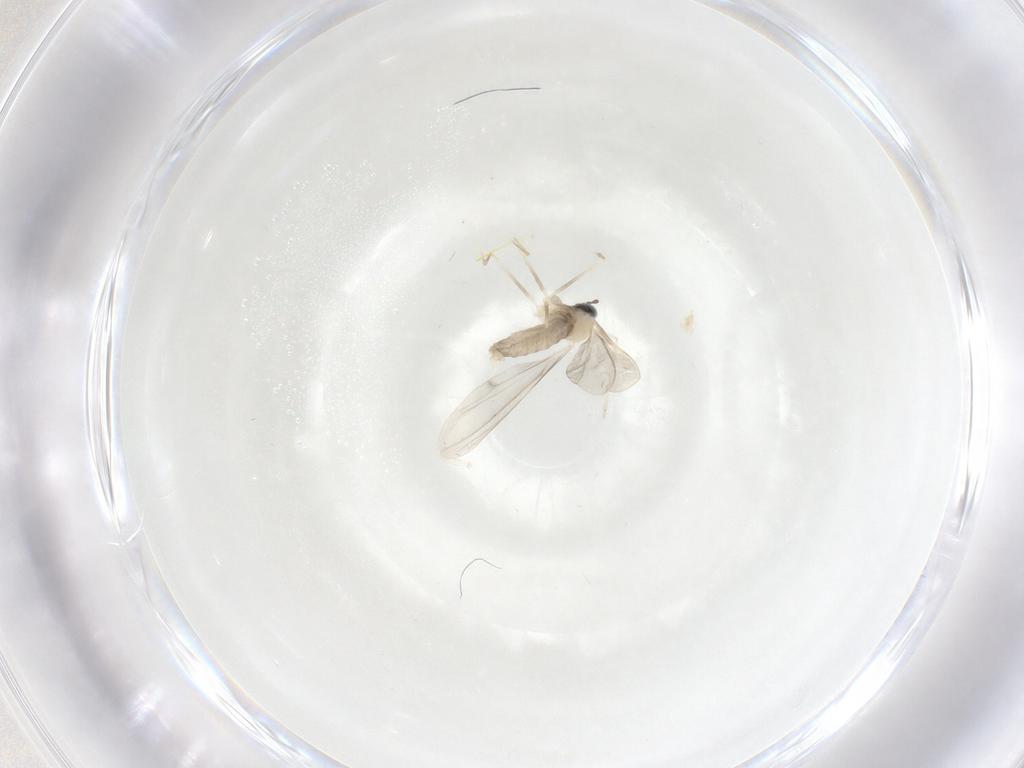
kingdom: Animalia
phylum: Arthropoda
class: Insecta
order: Diptera
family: Cecidomyiidae
